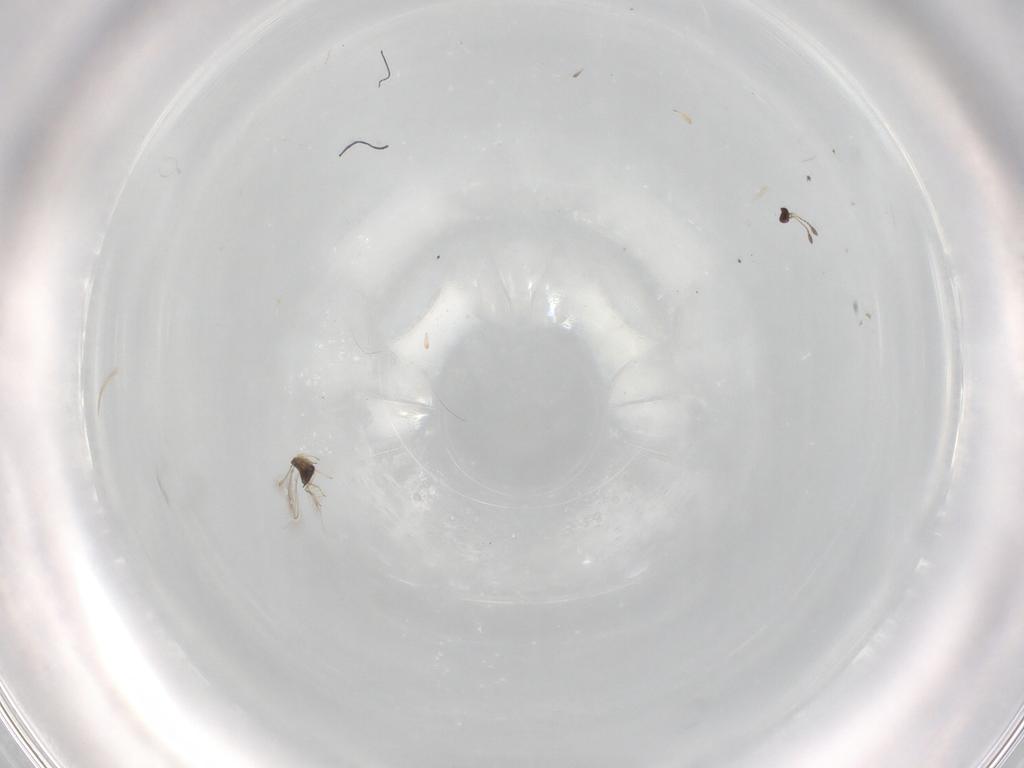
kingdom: Animalia
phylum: Arthropoda
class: Insecta
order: Hymenoptera
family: Mymaridae
